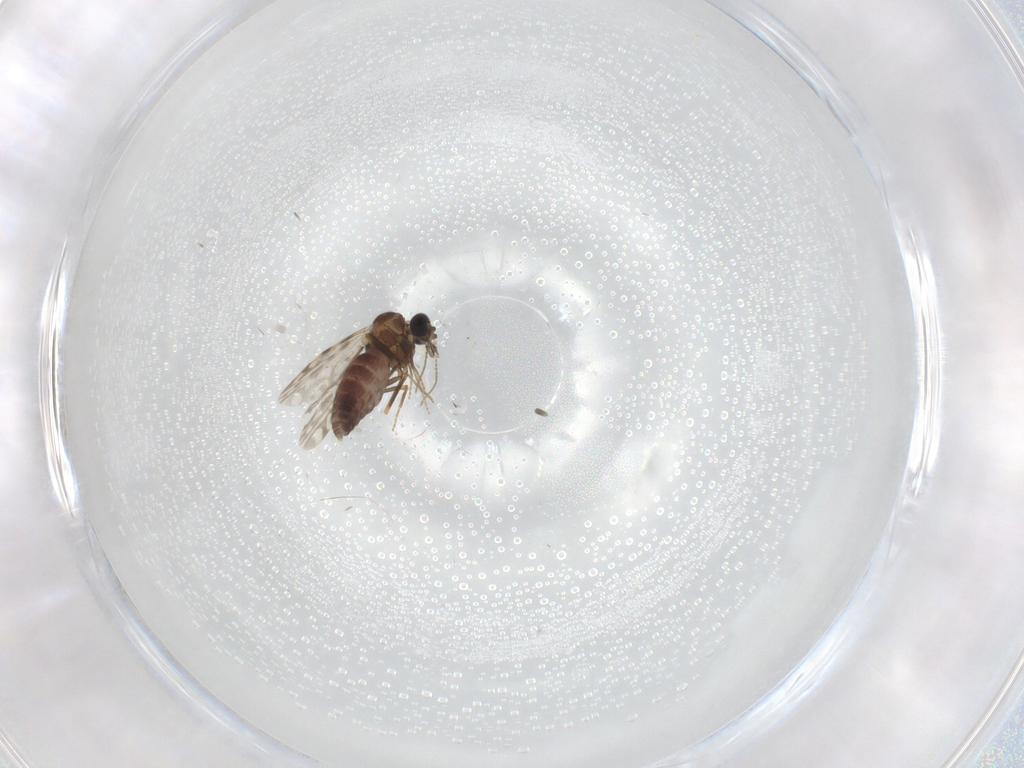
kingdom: Animalia
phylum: Arthropoda
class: Insecta
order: Diptera
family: Ceratopogonidae
